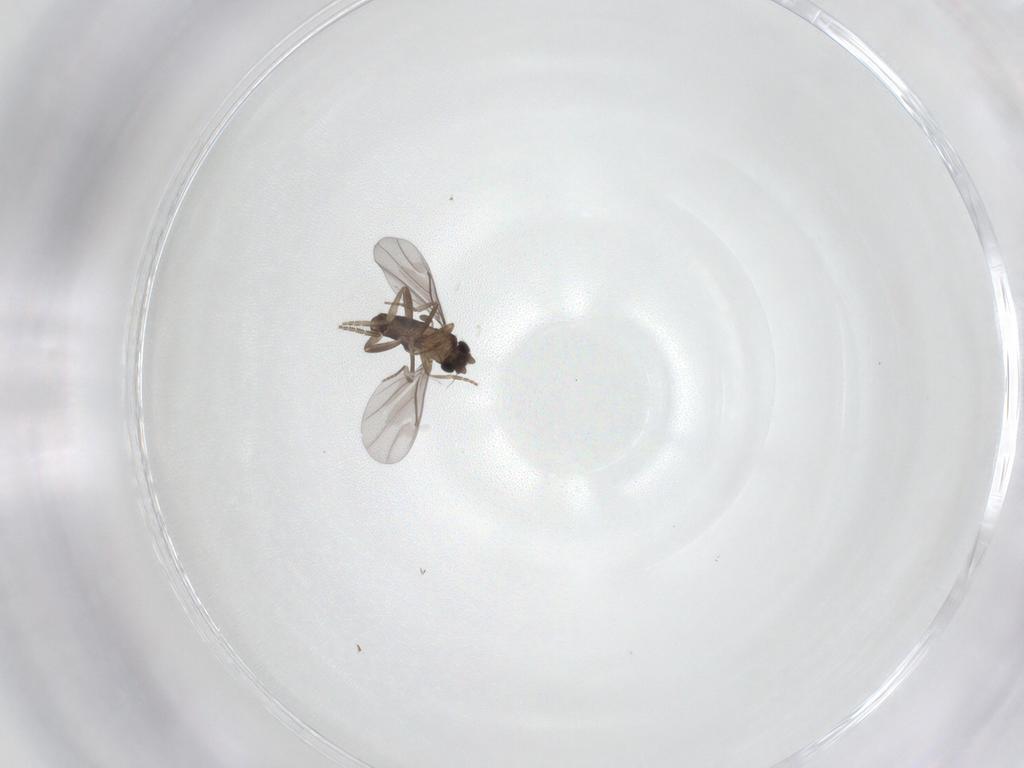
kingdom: Animalia
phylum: Arthropoda
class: Insecta
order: Diptera
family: Phoridae
